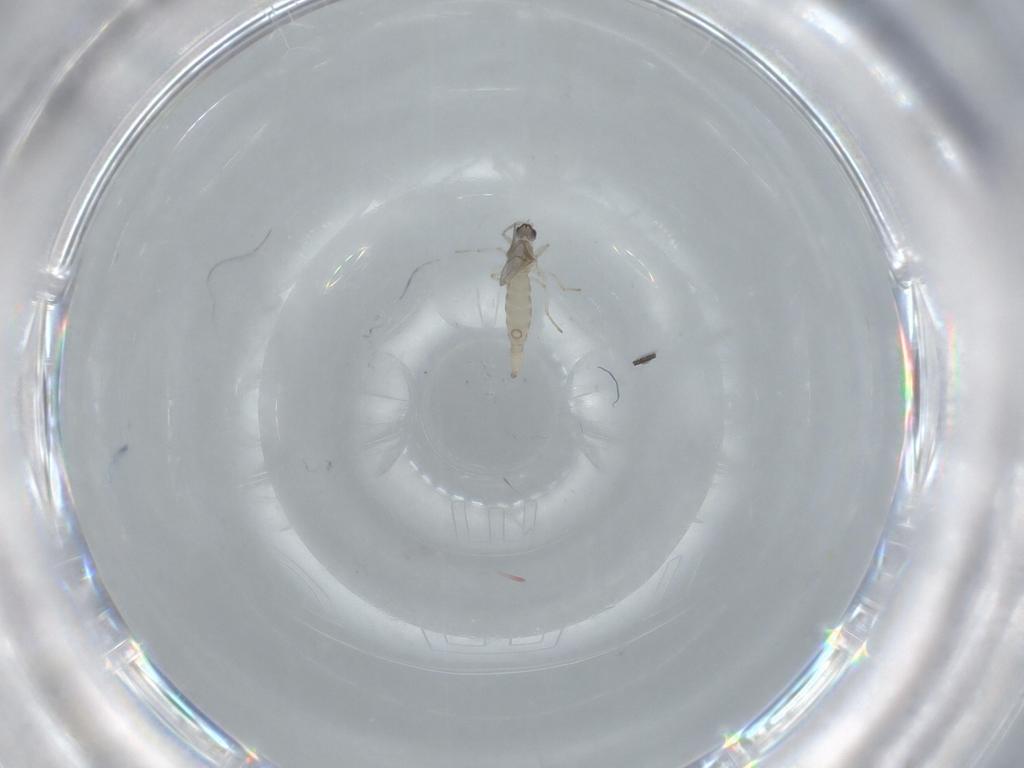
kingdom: Animalia
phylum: Arthropoda
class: Insecta
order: Diptera
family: Cecidomyiidae
